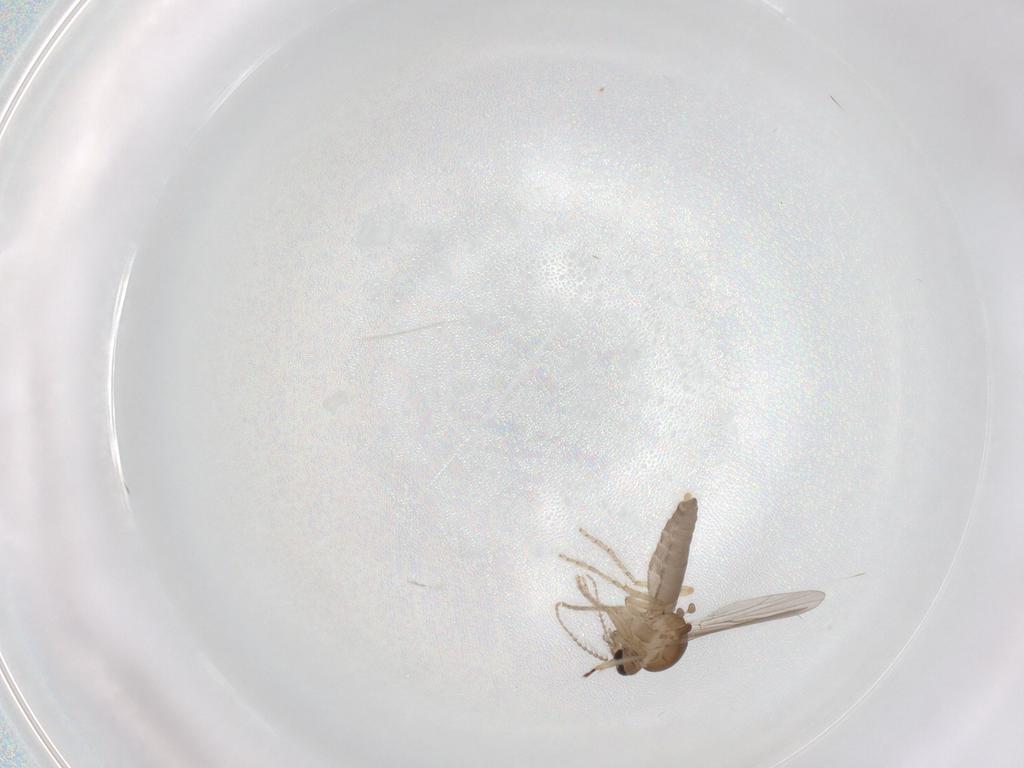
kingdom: Animalia
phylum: Arthropoda
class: Insecta
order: Diptera
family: Ceratopogonidae
